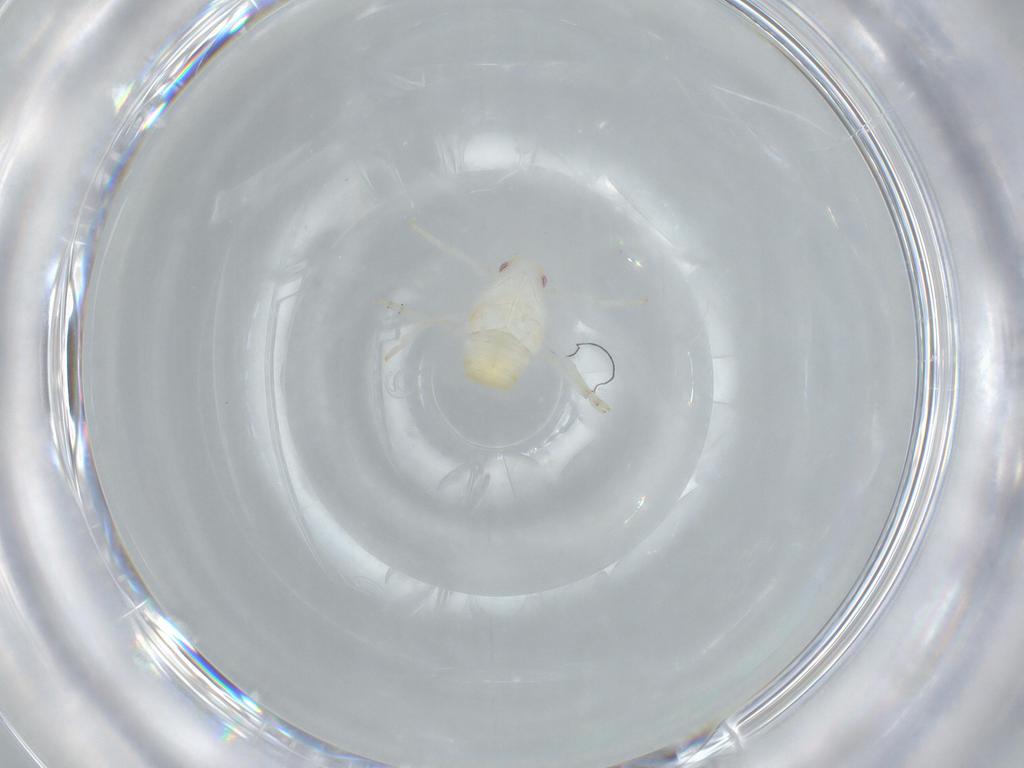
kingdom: Animalia
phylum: Arthropoda
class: Insecta
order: Hemiptera
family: Flatidae
